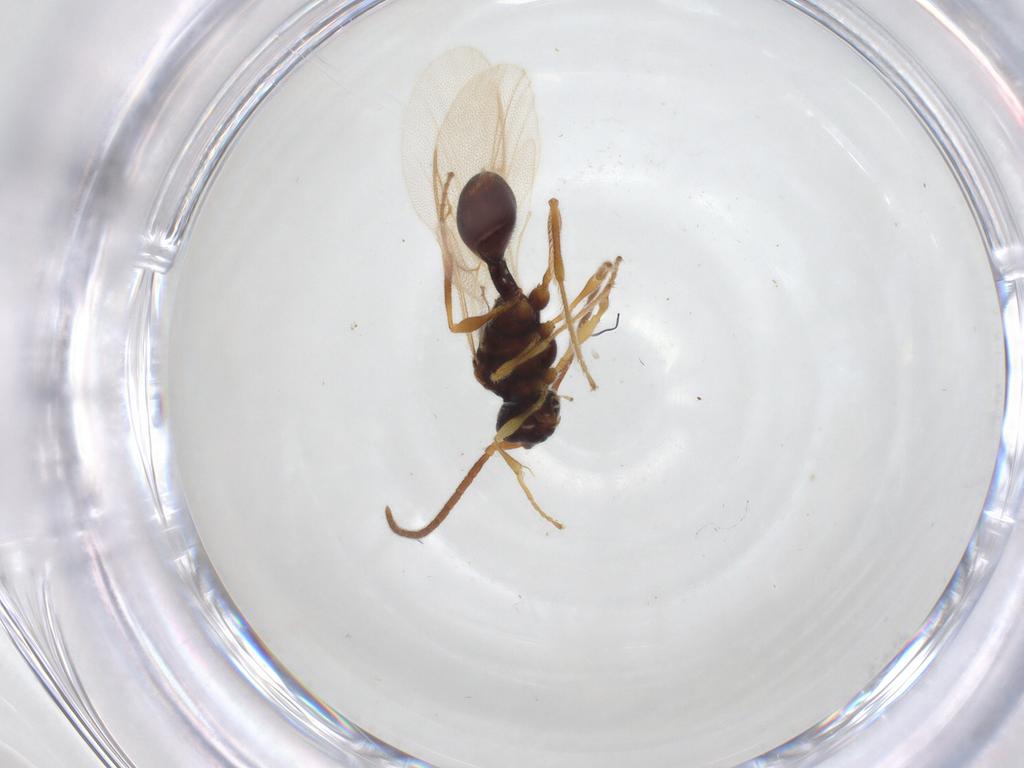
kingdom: Animalia
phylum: Arthropoda
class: Insecta
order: Hymenoptera
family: Diapriidae
